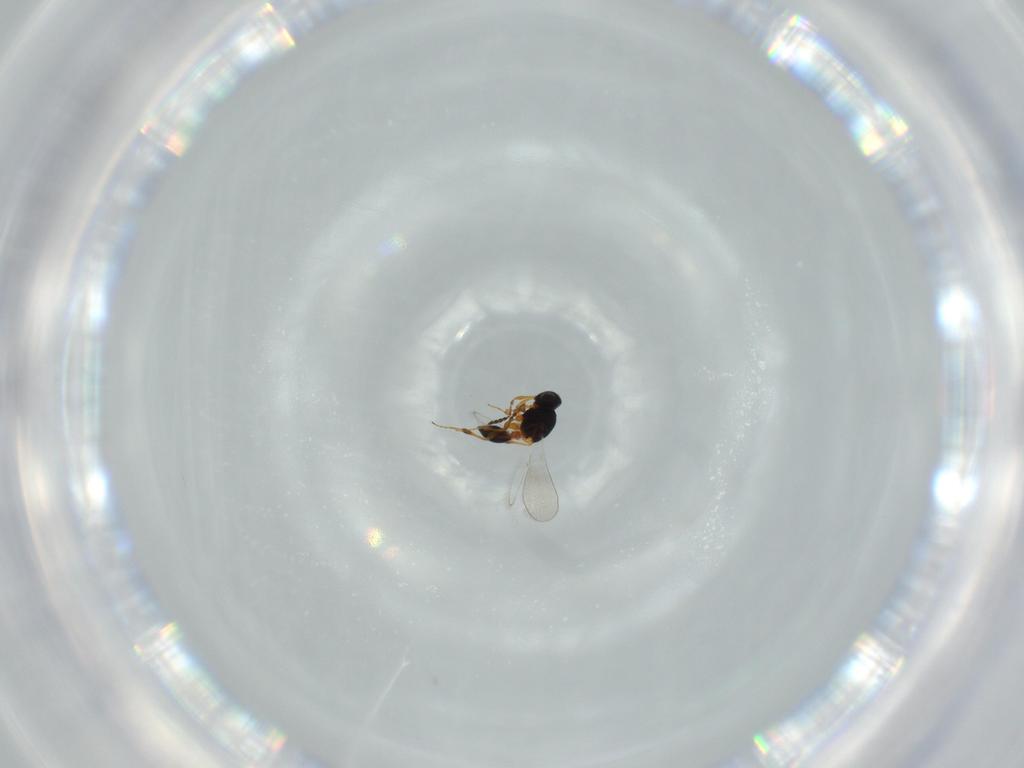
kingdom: Animalia
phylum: Arthropoda
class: Insecta
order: Hymenoptera
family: Platygastridae
